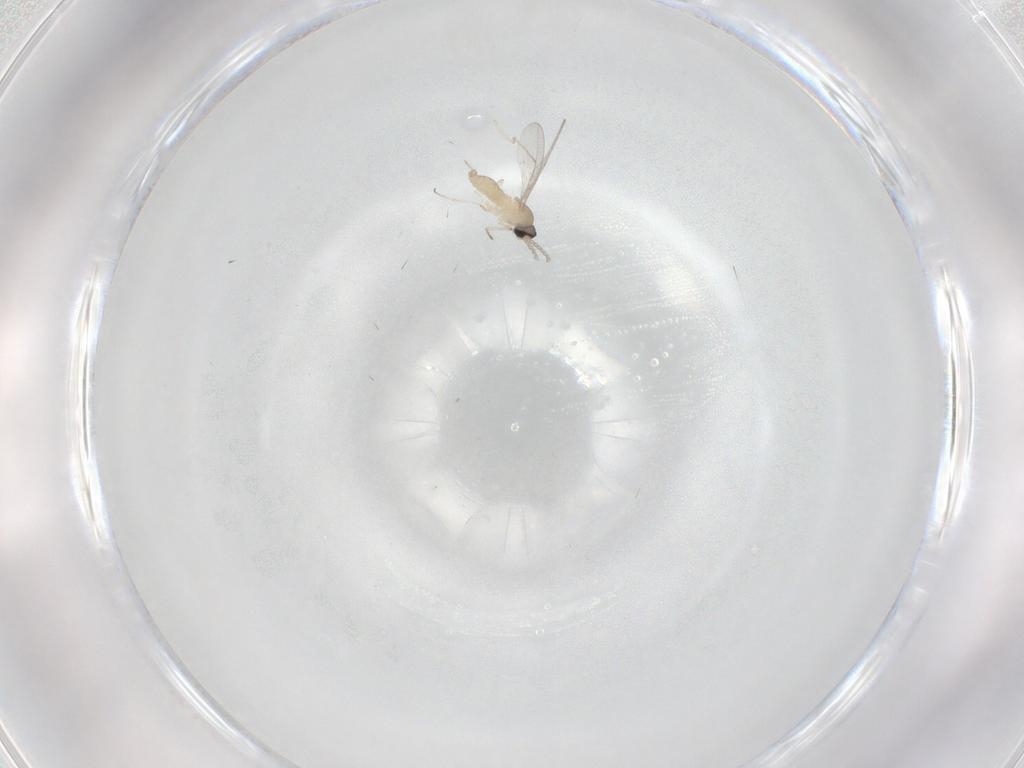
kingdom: Animalia
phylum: Arthropoda
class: Insecta
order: Diptera
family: Cecidomyiidae
